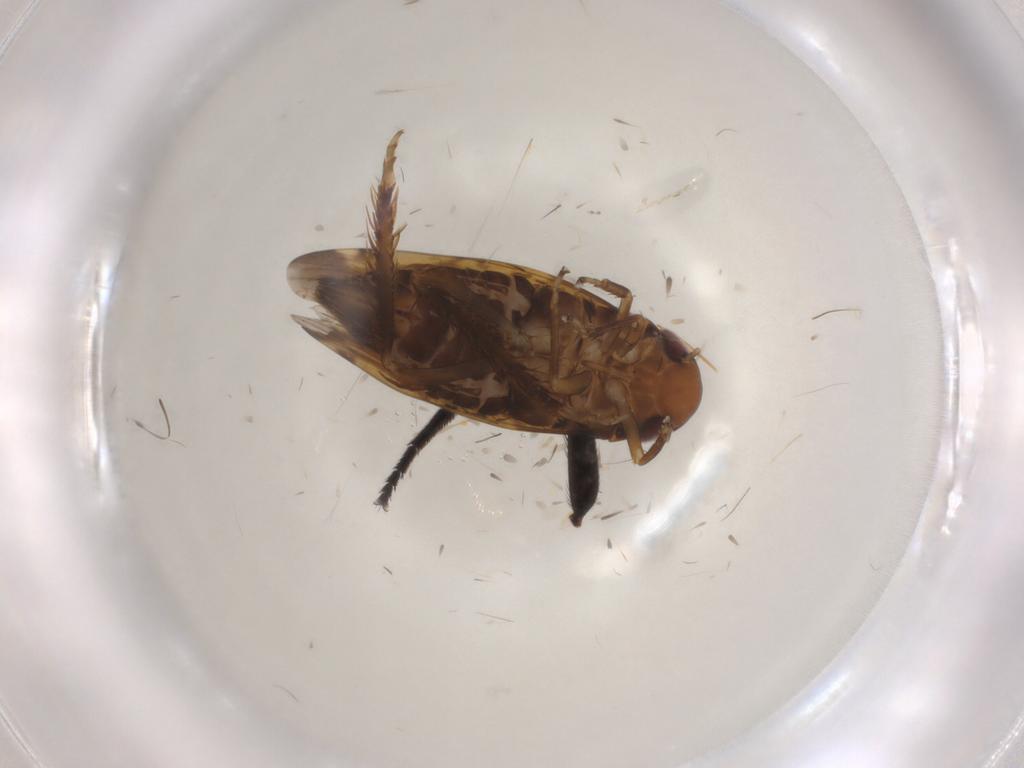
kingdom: Animalia
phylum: Arthropoda
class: Insecta
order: Hemiptera
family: Cicadellidae
